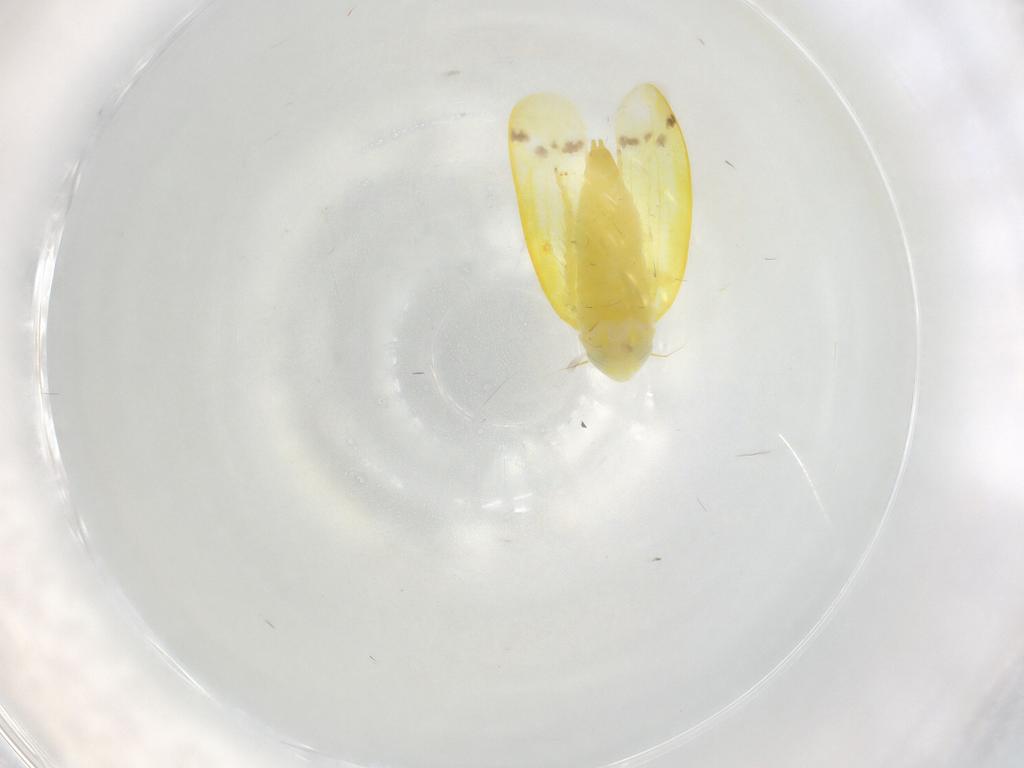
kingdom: Animalia
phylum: Arthropoda
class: Insecta
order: Hemiptera
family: Cicadellidae
